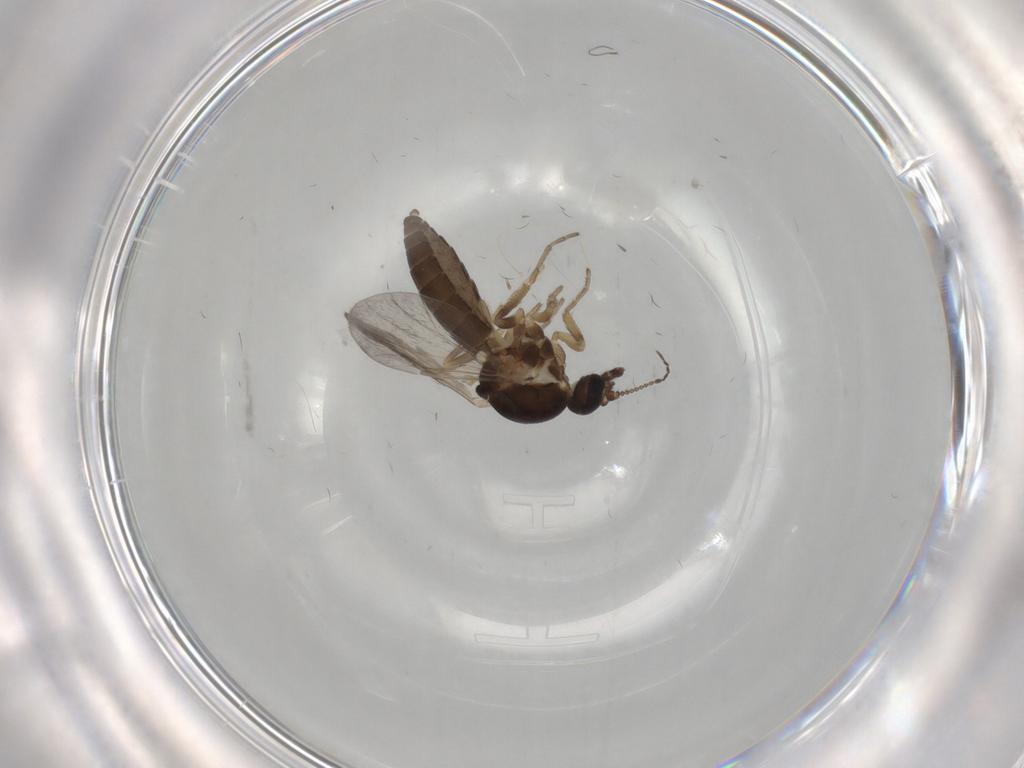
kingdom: Animalia
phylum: Arthropoda
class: Insecta
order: Diptera
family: Ceratopogonidae
